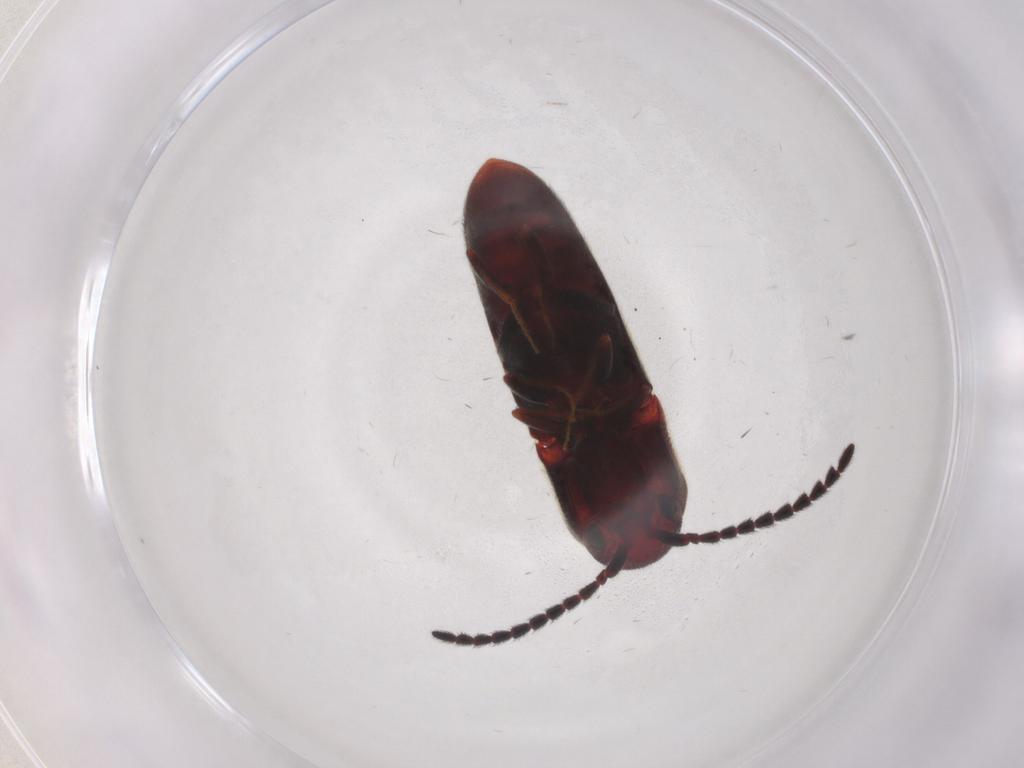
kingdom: Animalia
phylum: Arthropoda
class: Insecta
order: Coleoptera
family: Eucnemidae
